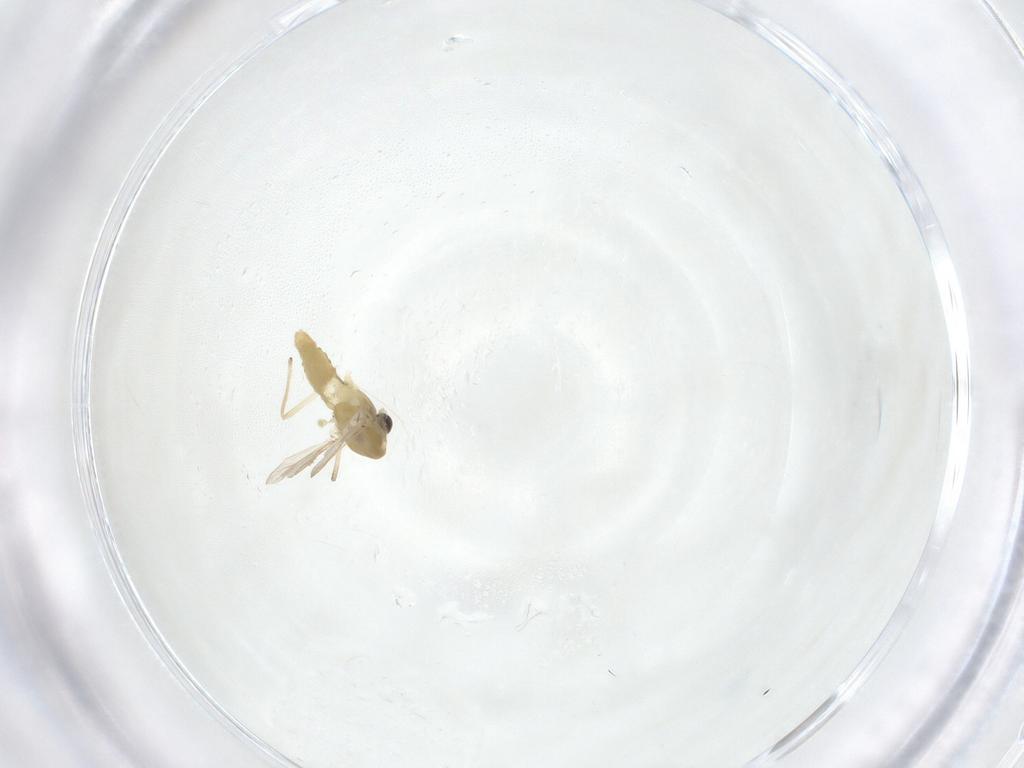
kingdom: Animalia
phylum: Arthropoda
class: Insecta
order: Diptera
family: Chironomidae
